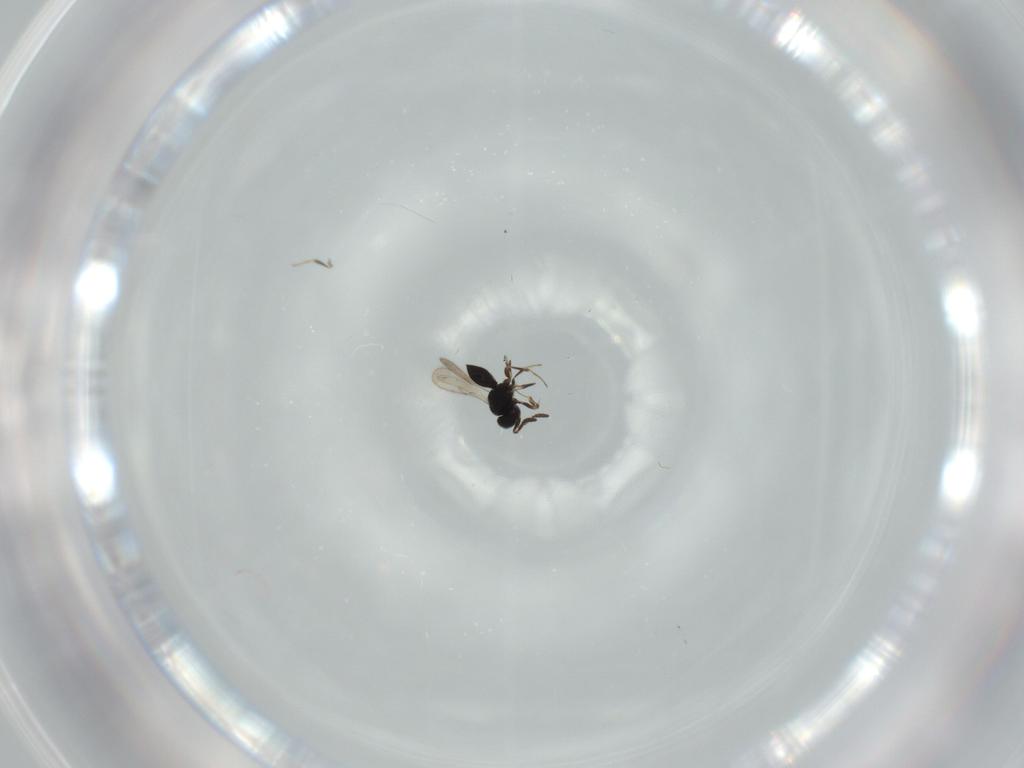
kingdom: Animalia
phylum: Arthropoda
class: Insecta
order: Hymenoptera
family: Scelionidae
